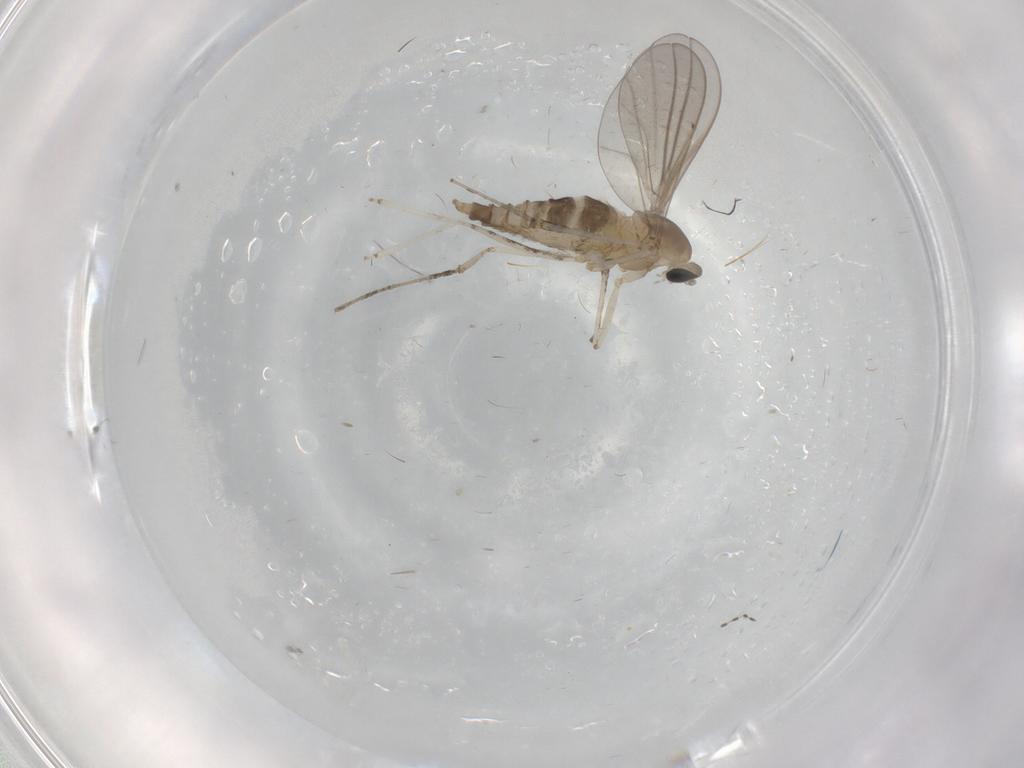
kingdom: Animalia
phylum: Arthropoda
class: Insecta
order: Diptera
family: Cecidomyiidae
